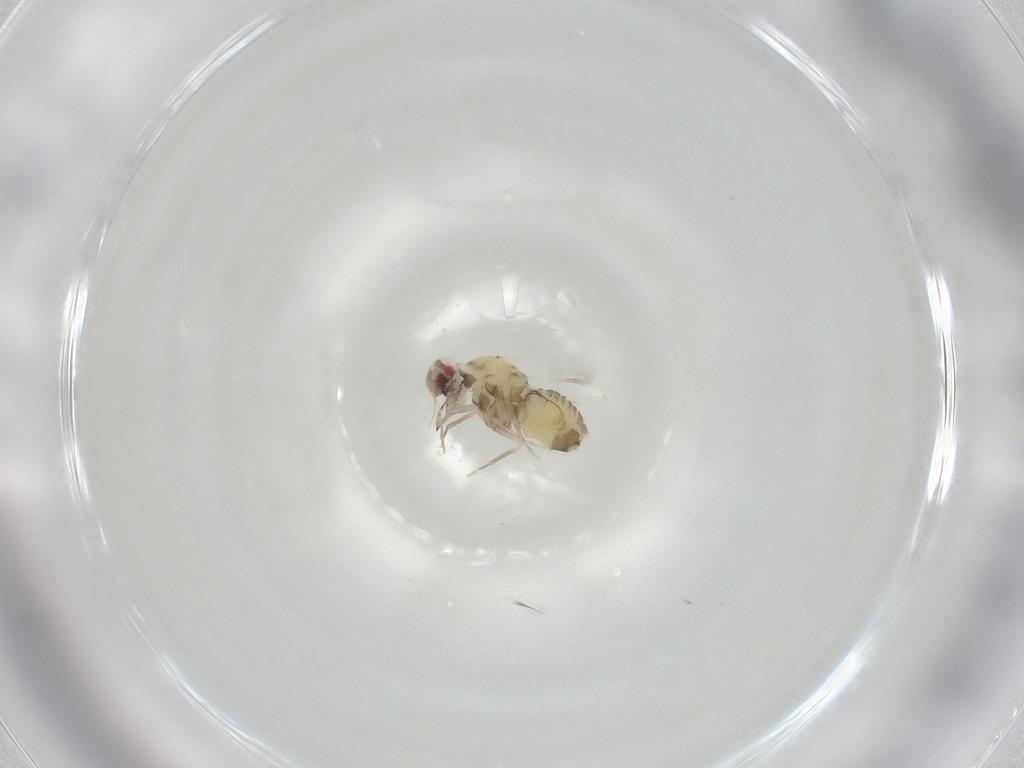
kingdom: Animalia
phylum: Arthropoda
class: Insecta
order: Hemiptera
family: Aleyrodidae
